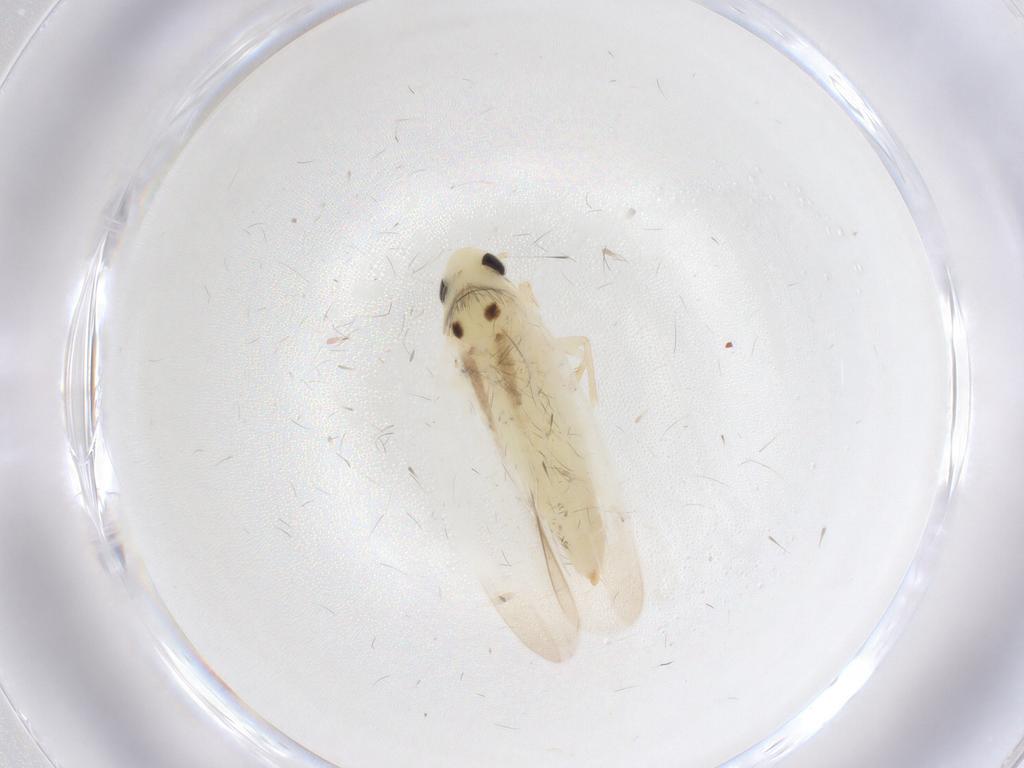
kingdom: Animalia
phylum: Arthropoda
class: Insecta
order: Hemiptera
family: Cicadellidae
